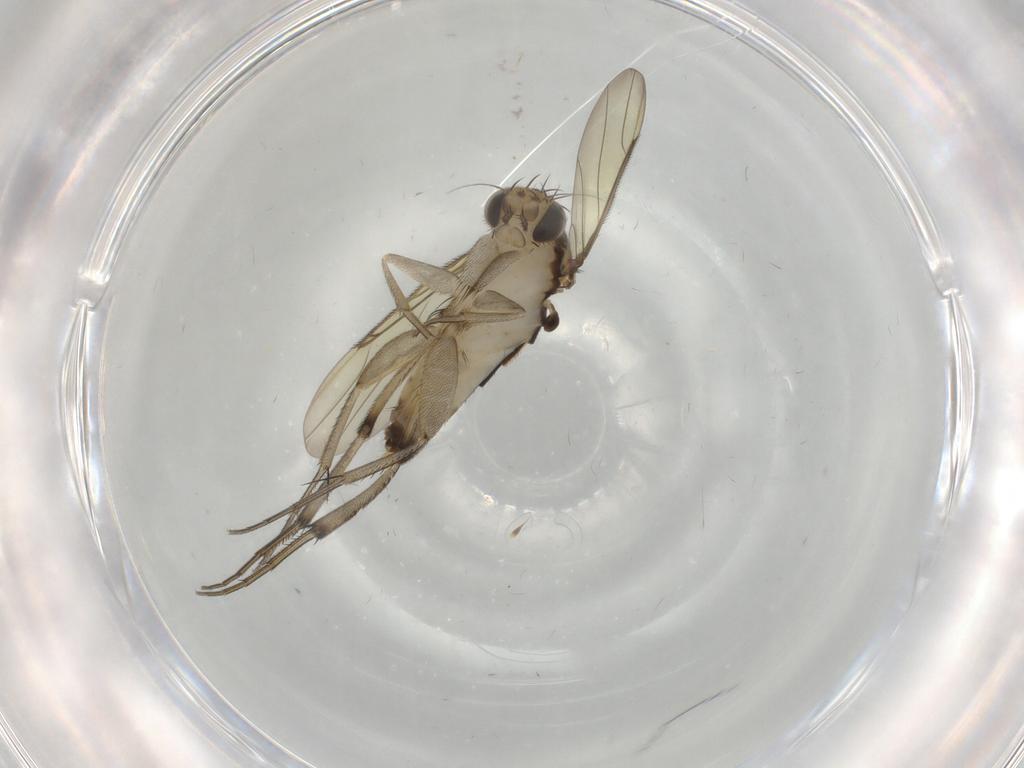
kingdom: Animalia
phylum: Arthropoda
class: Insecta
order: Diptera
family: Phoridae
